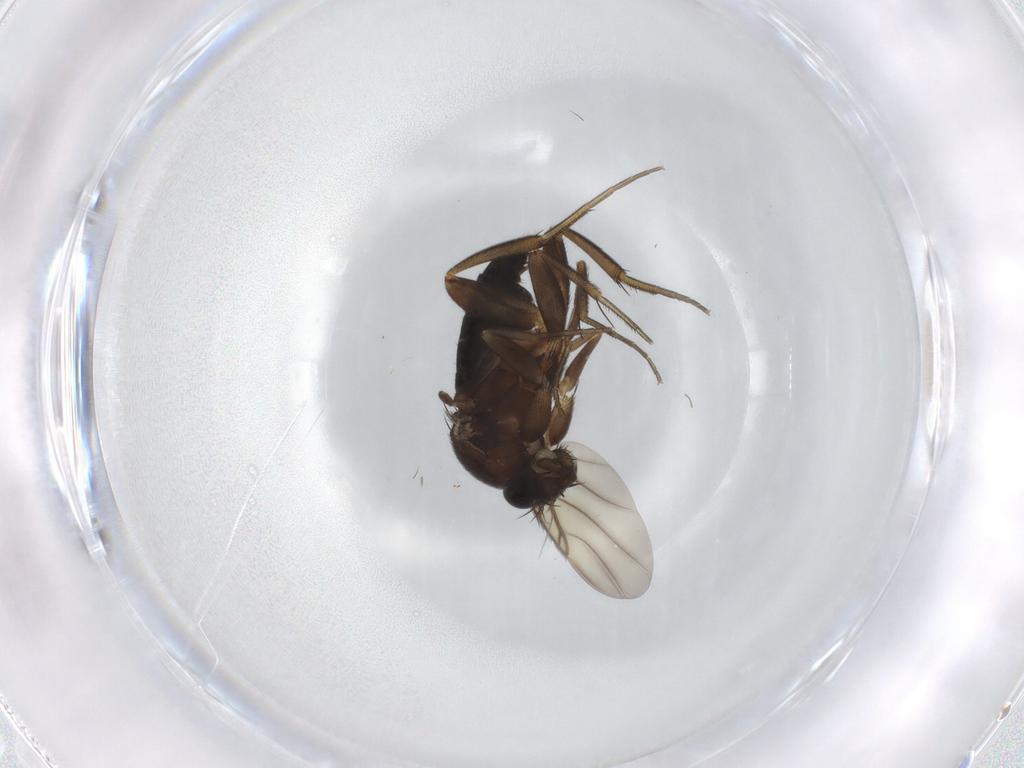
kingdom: Animalia
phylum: Arthropoda
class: Insecta
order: Diptera
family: Phoridae
